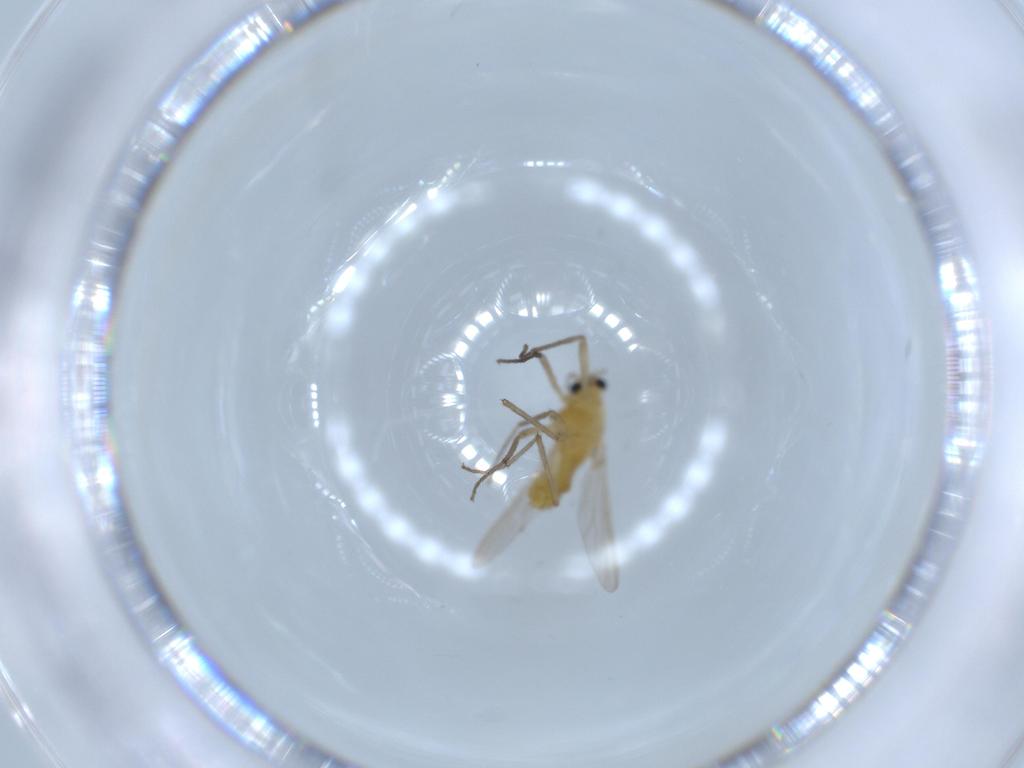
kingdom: Animalia
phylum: Arthropoda
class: Insecta
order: Diptera
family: Chironomidae
